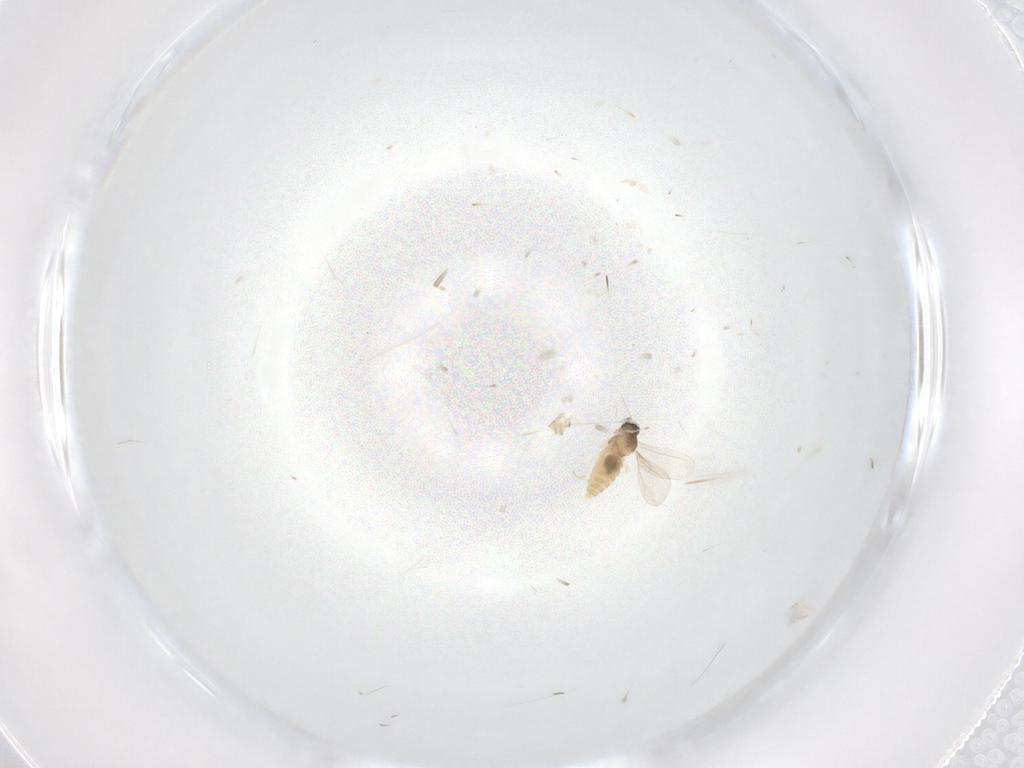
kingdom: Animalia
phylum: Arthropoda
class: Insecta
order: Diptera
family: Cecidomyiidae
